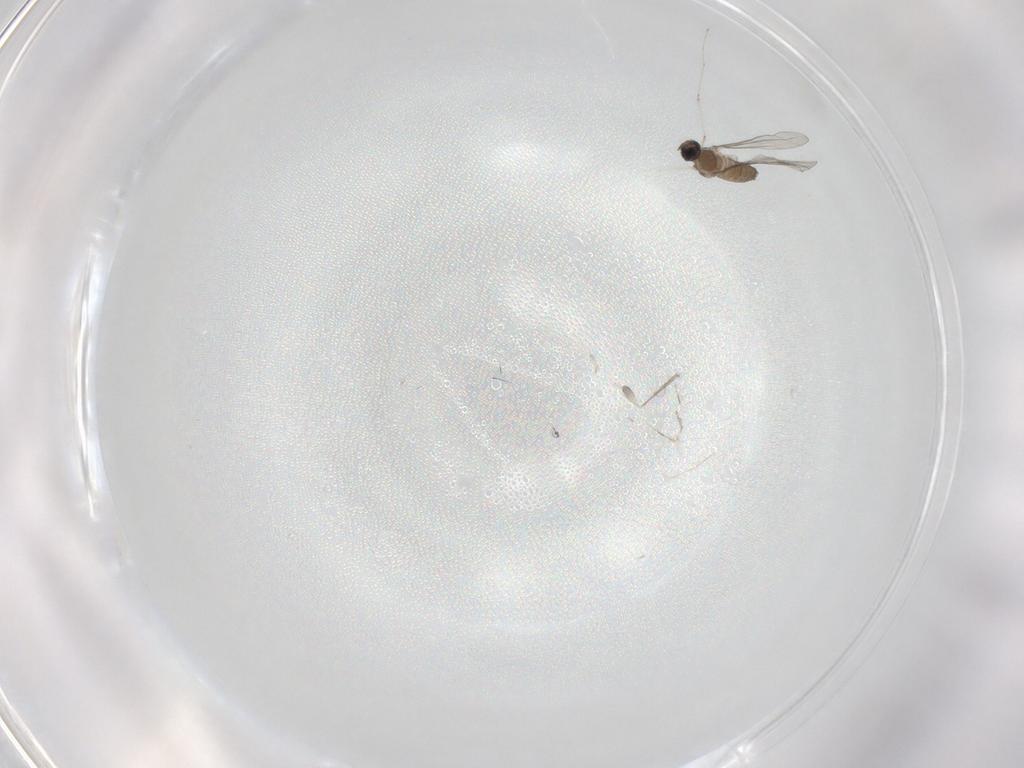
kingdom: Animalia
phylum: Arthropoda
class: Insecta
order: Diptera
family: Cecidomyiidae
